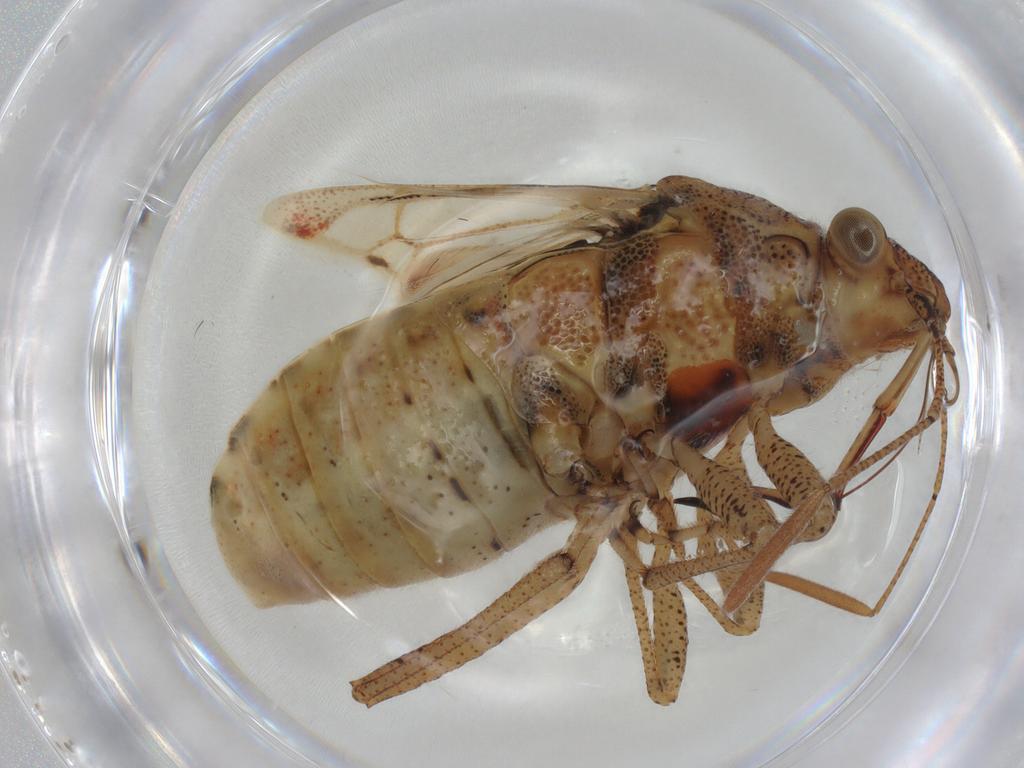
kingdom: Animalia
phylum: Arthropoda
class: Insecta
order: Hemiptera
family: Rhopalidae
